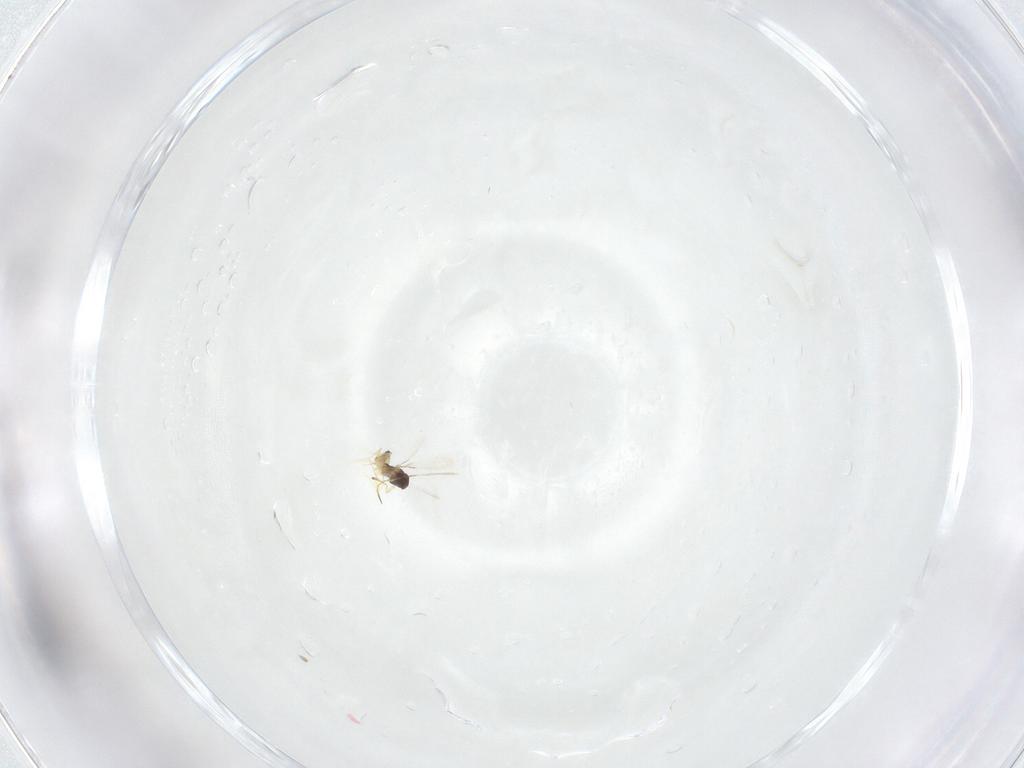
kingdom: Animalia
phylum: Arthropoda
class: Insecta
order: Hymenoptera
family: Mymaridae
